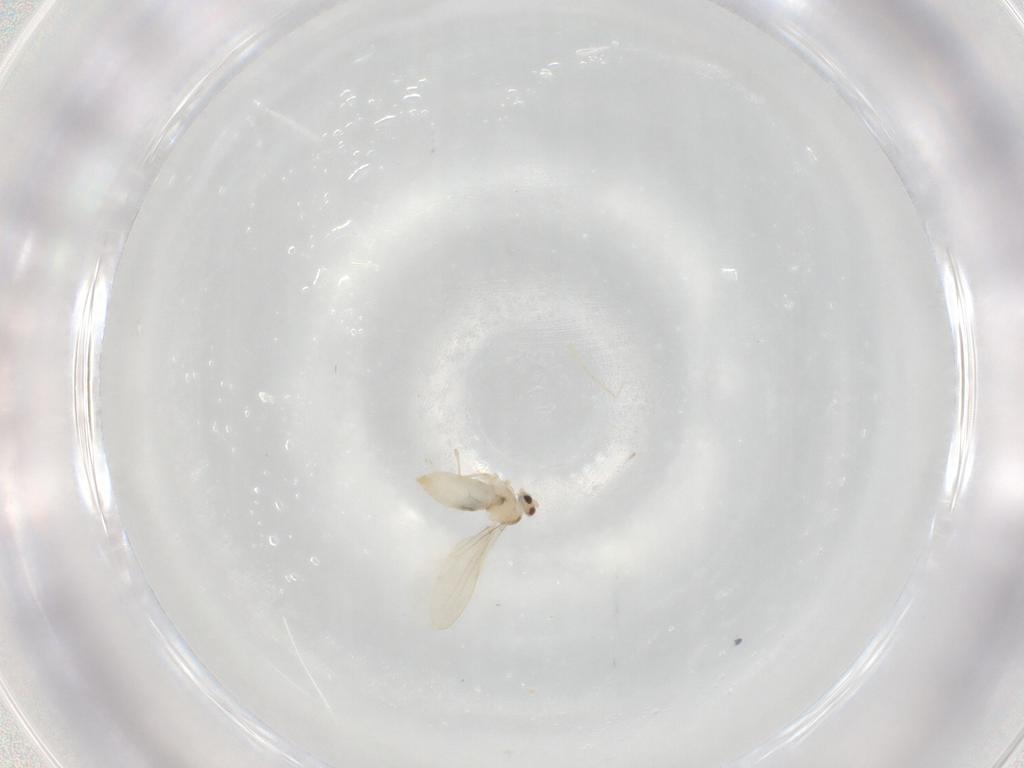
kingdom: Animalia
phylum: Arthropoda
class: Insecta
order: Diptera
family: Cecidomyiidae
